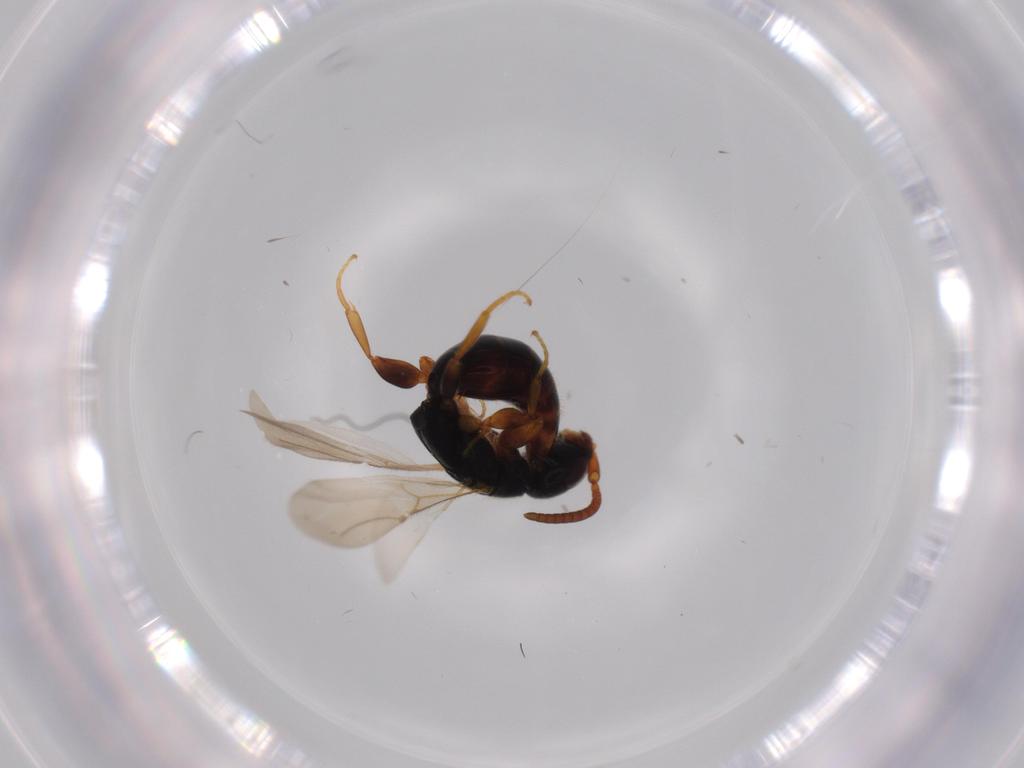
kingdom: Animalia
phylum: Arthropoda
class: Insecta
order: Hymenoptera
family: Bethylidae
